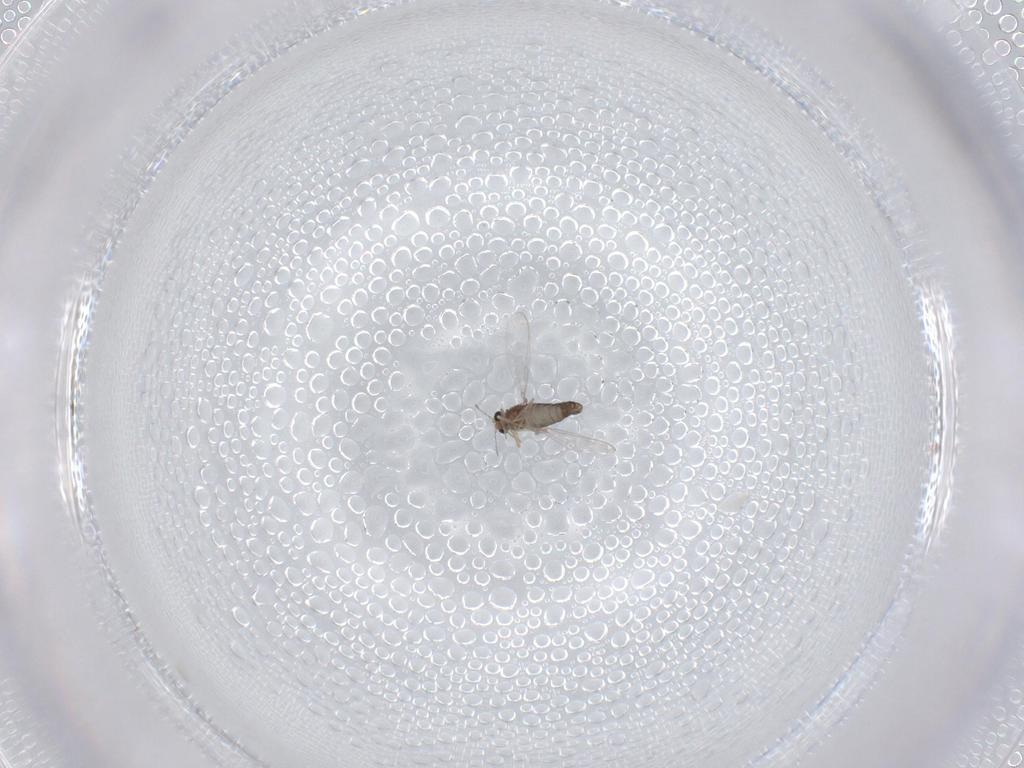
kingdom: Animalia
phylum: Arthropoda
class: Insecta
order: Diptera
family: Chironomidae
